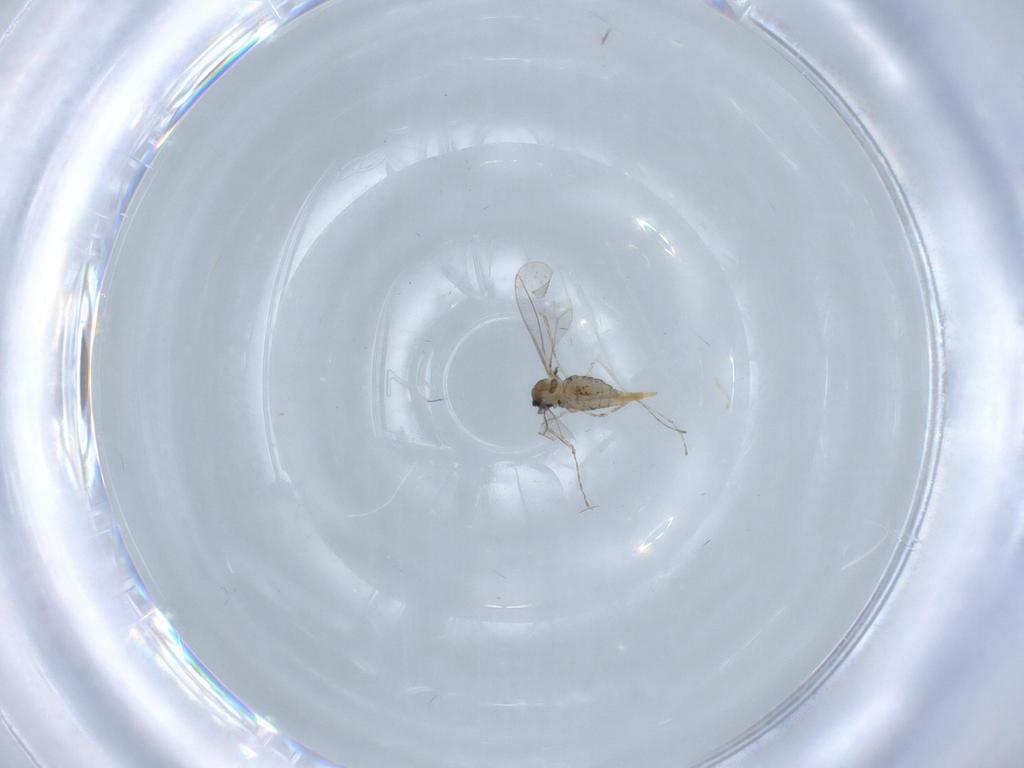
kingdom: Animalia
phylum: Arthropoda
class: Insecta
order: Diptera
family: Cecidomyiidae
